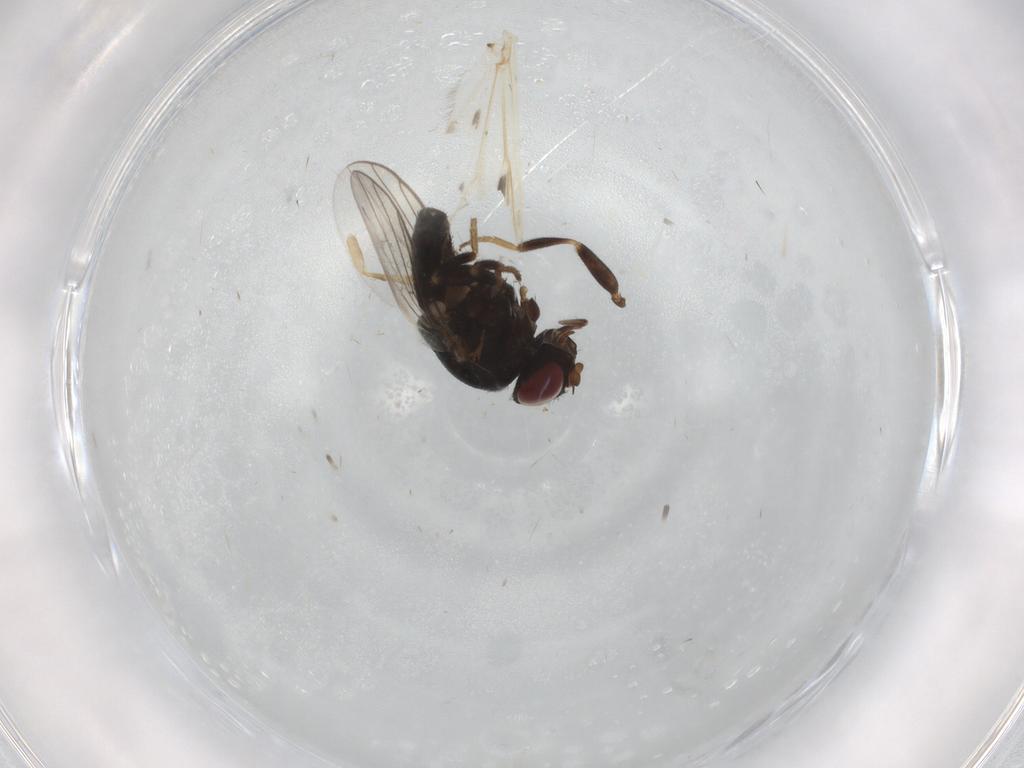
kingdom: Animalia
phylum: Arthropoda
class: Insecta
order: Diptera
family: Chloropidae
